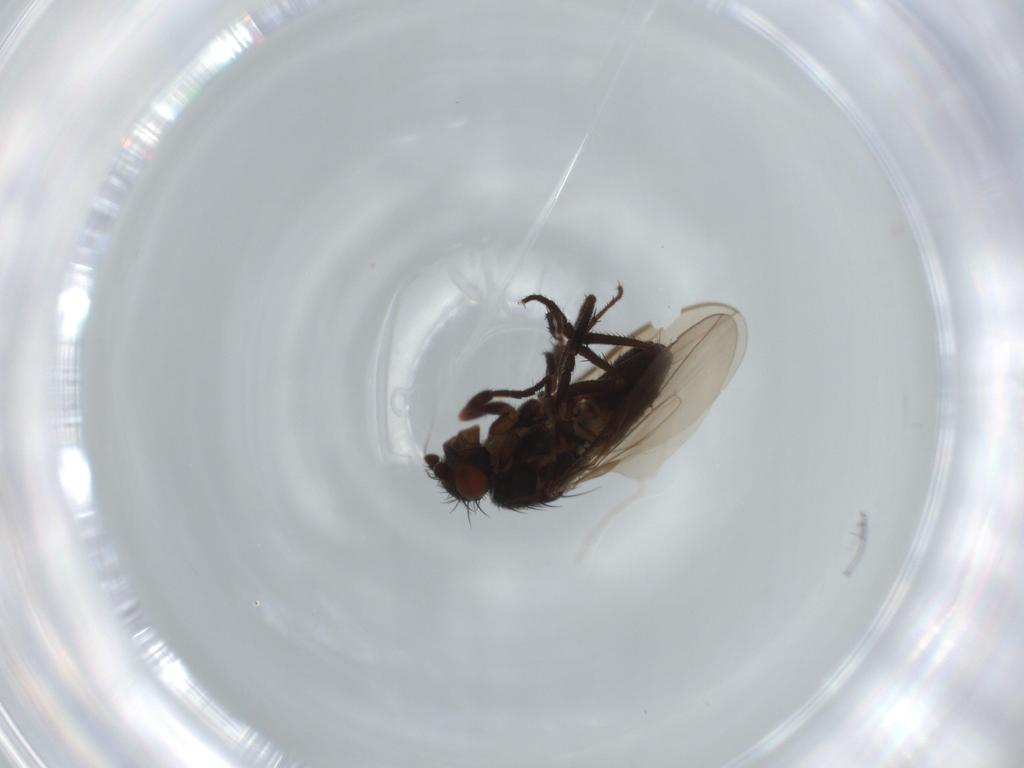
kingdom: Animalia
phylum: Arthropoda
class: Insecta
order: Diptera
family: Sphaeroceridae
